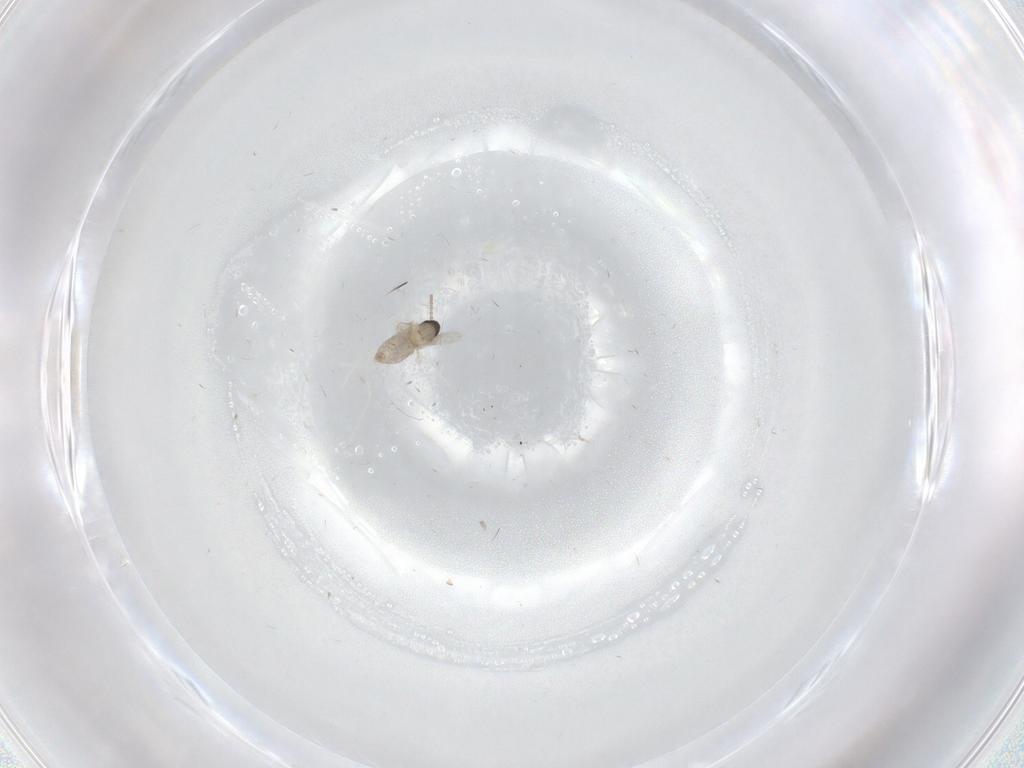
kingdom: Animalia
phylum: Arthropoda
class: Insecta
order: Diptera
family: Cecidomyiidae
